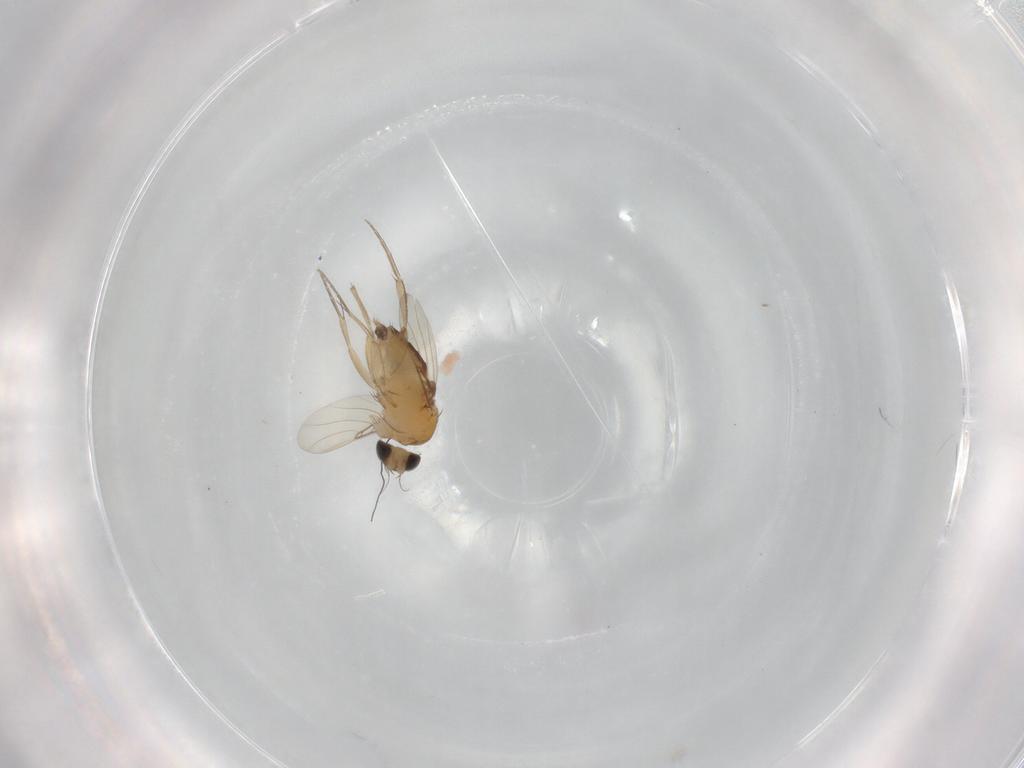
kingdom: Animalia
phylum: Arthropoda
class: Insecta
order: Diptera
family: Phoridae
